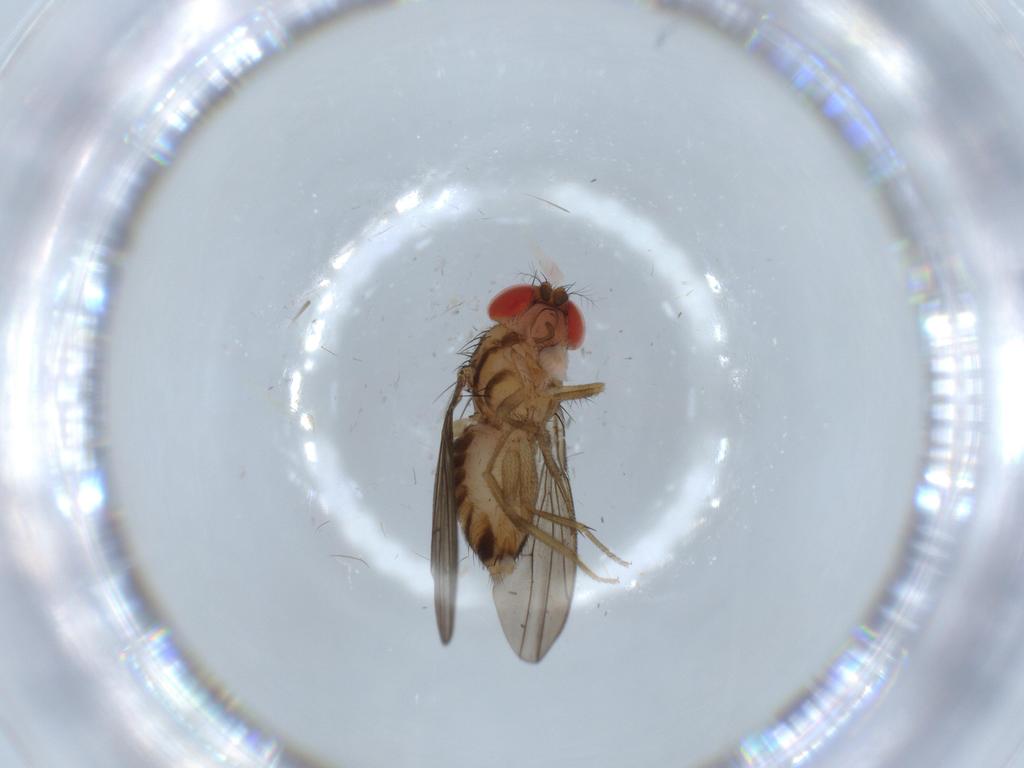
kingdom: Animalia
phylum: Arthropoda
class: Insecta
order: Diptera
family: Drosophilidae
